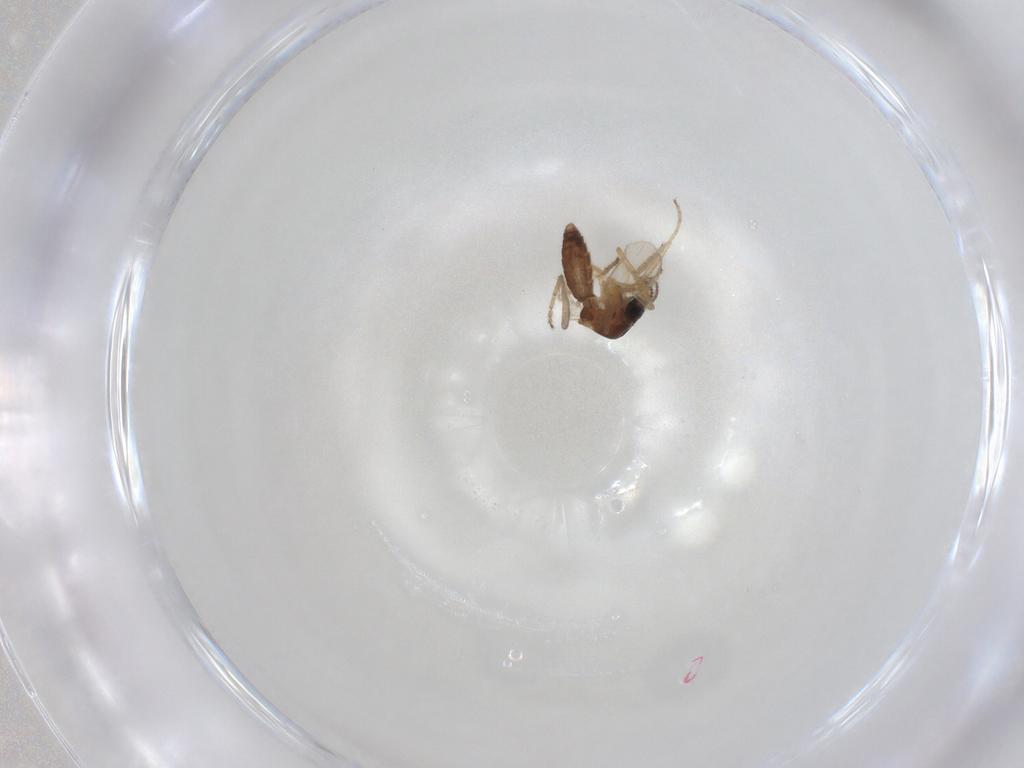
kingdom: Animalia
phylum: Arthropoda
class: Insecta
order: Diptera
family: Ceratopogonidae
